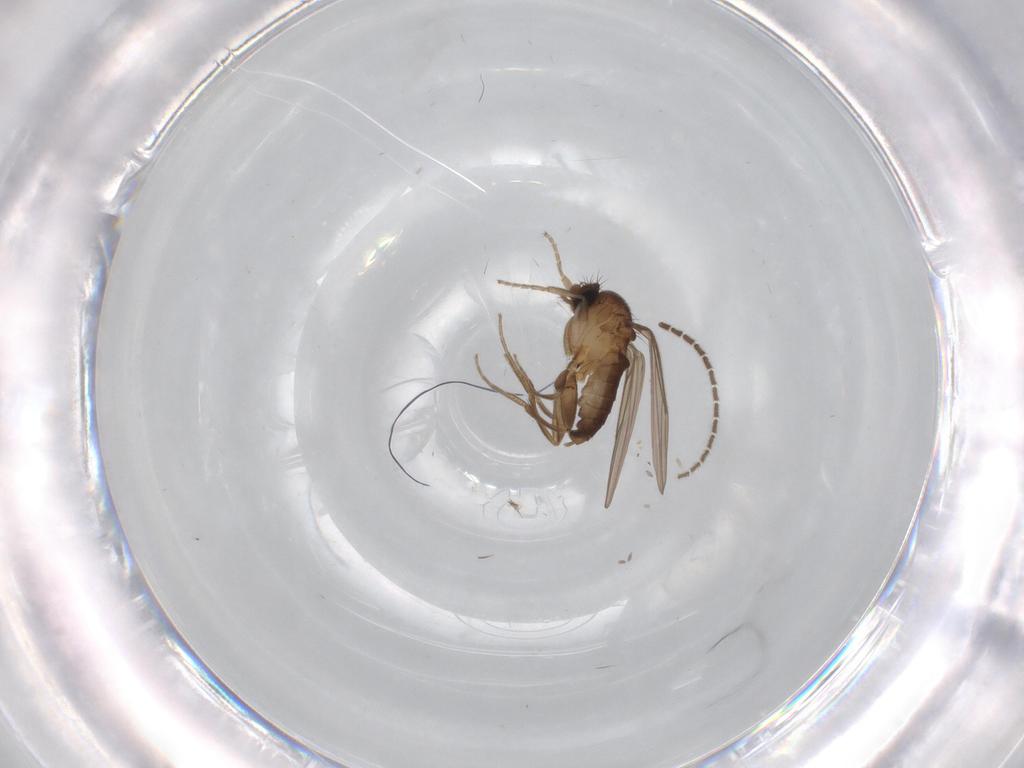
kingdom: Animalia
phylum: Arthropoda
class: Insecta
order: Diptera
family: Sciaridae
